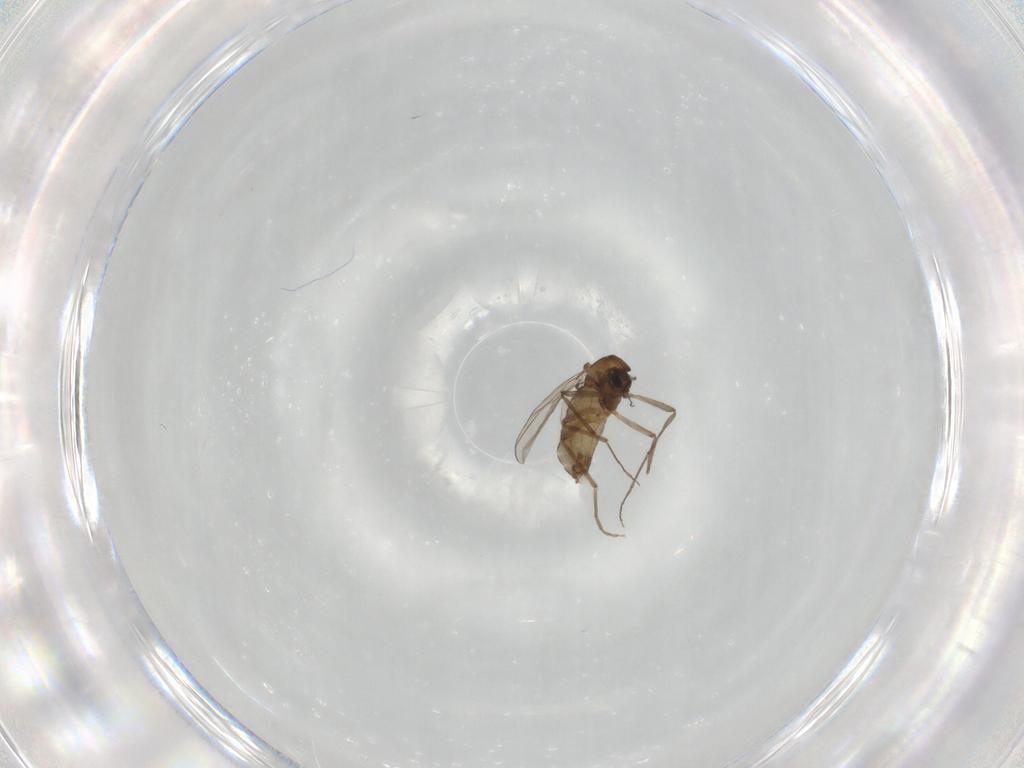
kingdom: Animalia
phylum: Arthropoda
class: Insecta
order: Diptera
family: Chironomidae
